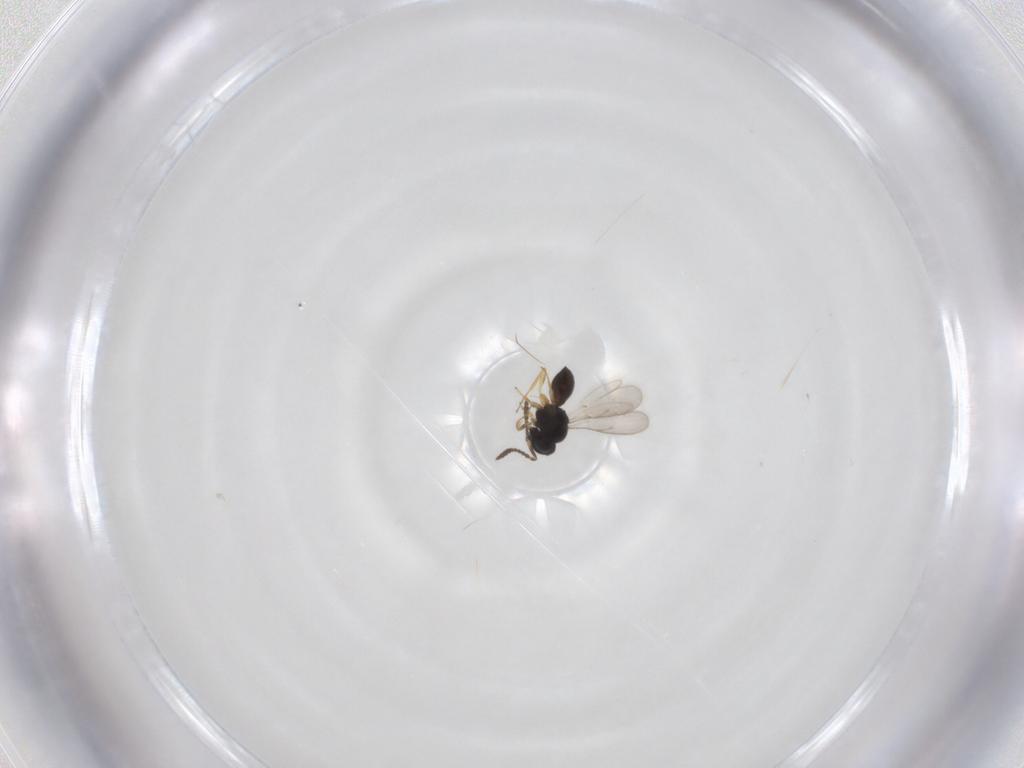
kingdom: Animalia
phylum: Arthropoda
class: Insecta
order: Hymenoptera
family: Scelionidae
